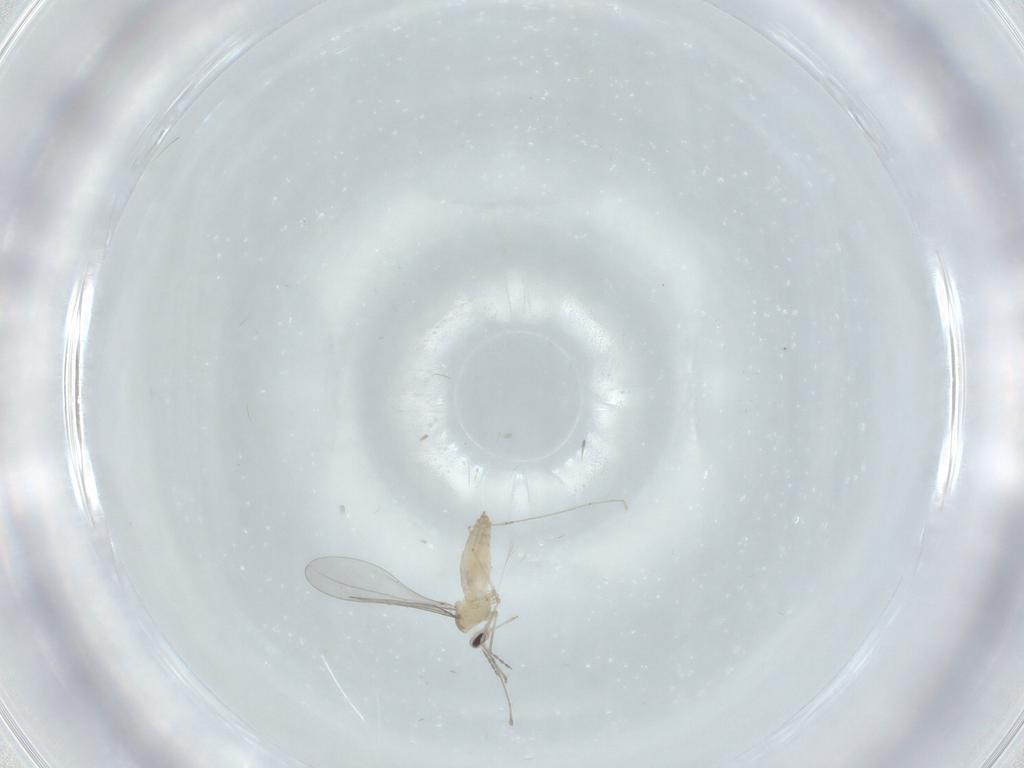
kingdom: Animalia
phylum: Arthropoda
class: Insecta
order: Diptera
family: Cecidomyiidae
